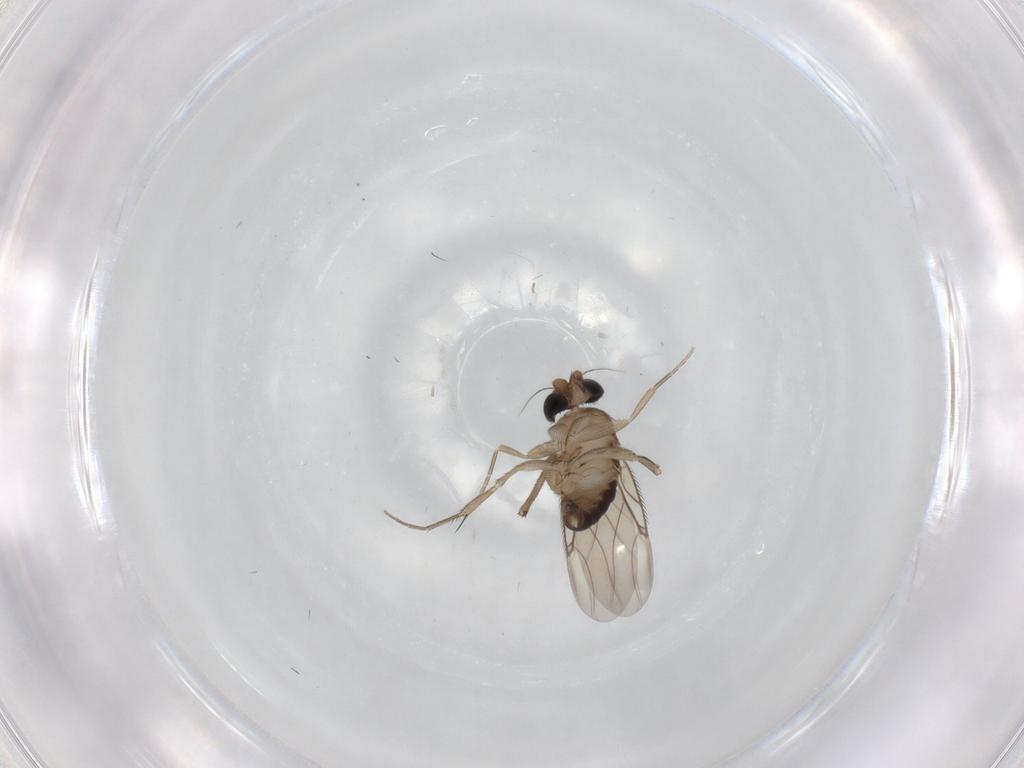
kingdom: Animalia
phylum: Arthropoda
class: Insecta
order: Diptera
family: Phoridae
